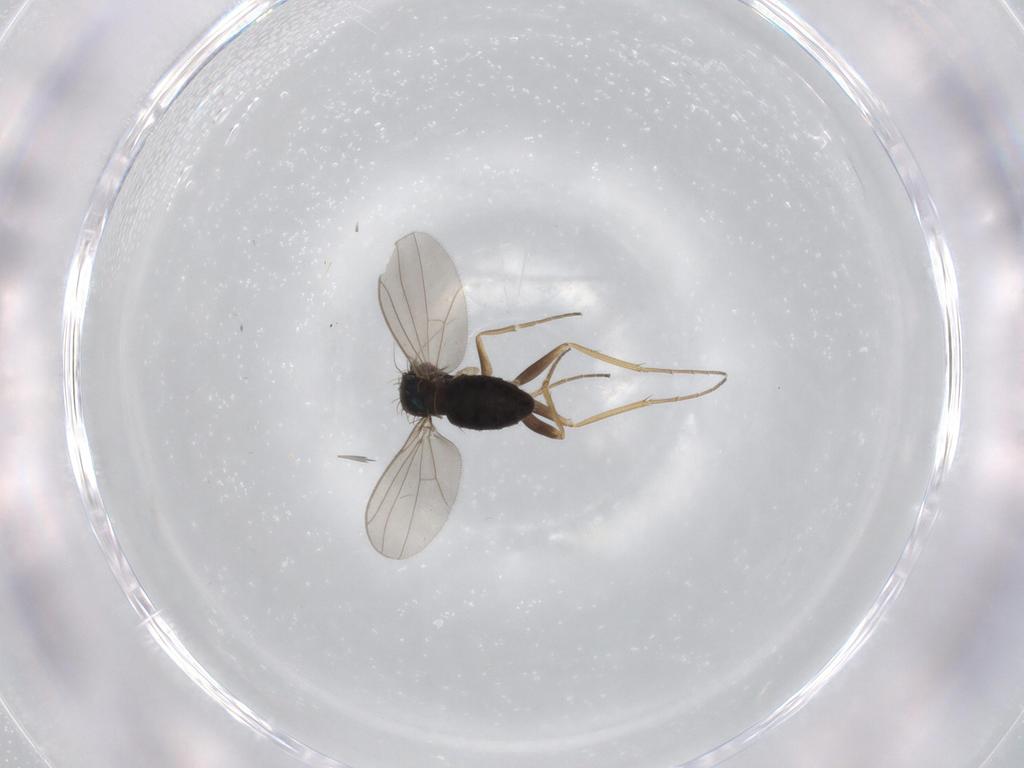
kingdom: Animalia
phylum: Arthropoda
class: Insecta
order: Diptera
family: Dolichopodidae
